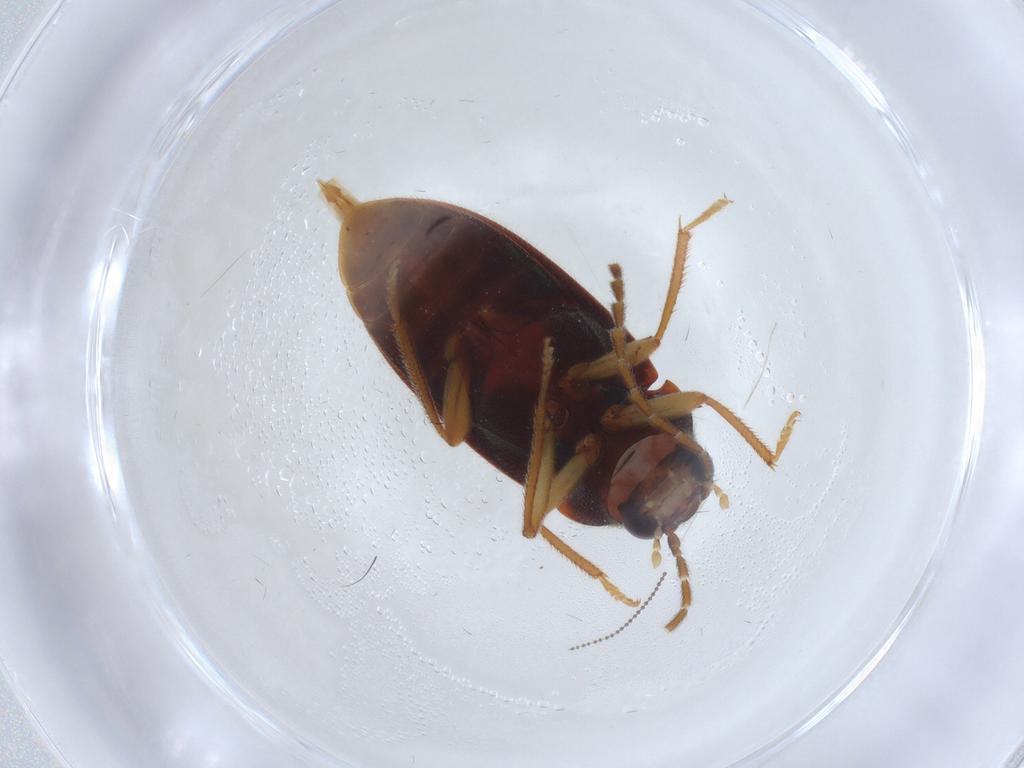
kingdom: Animalia
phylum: Arthropoda
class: Insecta
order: Coleoptera
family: Ptilodactylidae
